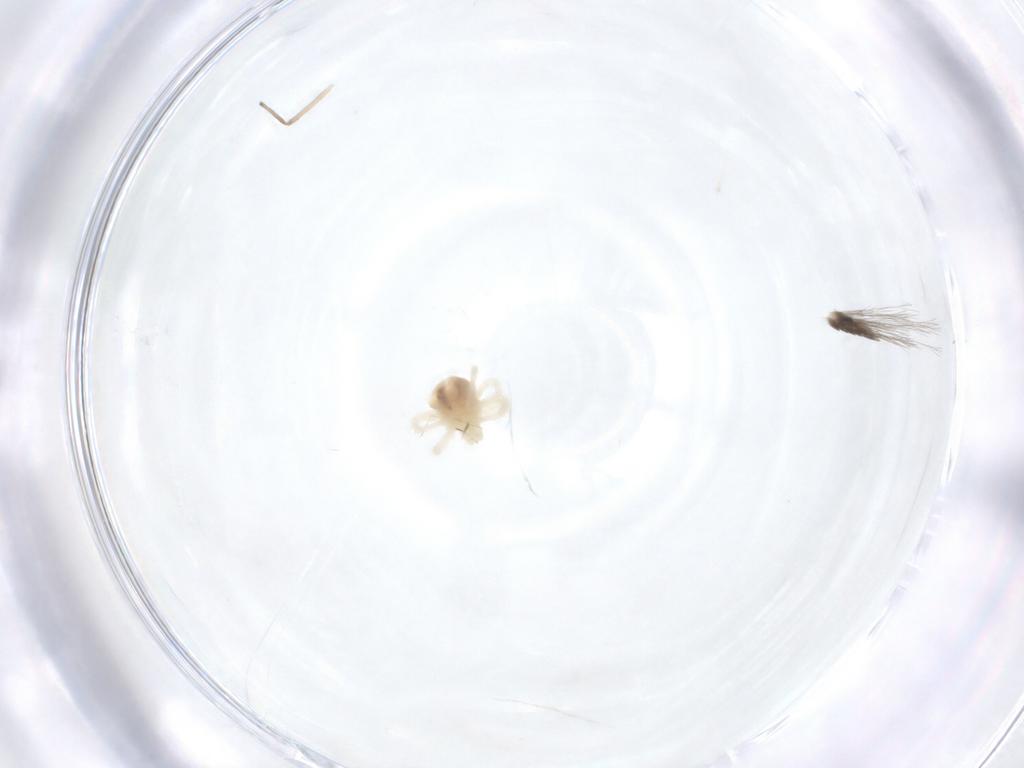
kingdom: Animalia
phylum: Arthropoda
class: Arachnida
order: Trombidiformes
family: Anystidae
